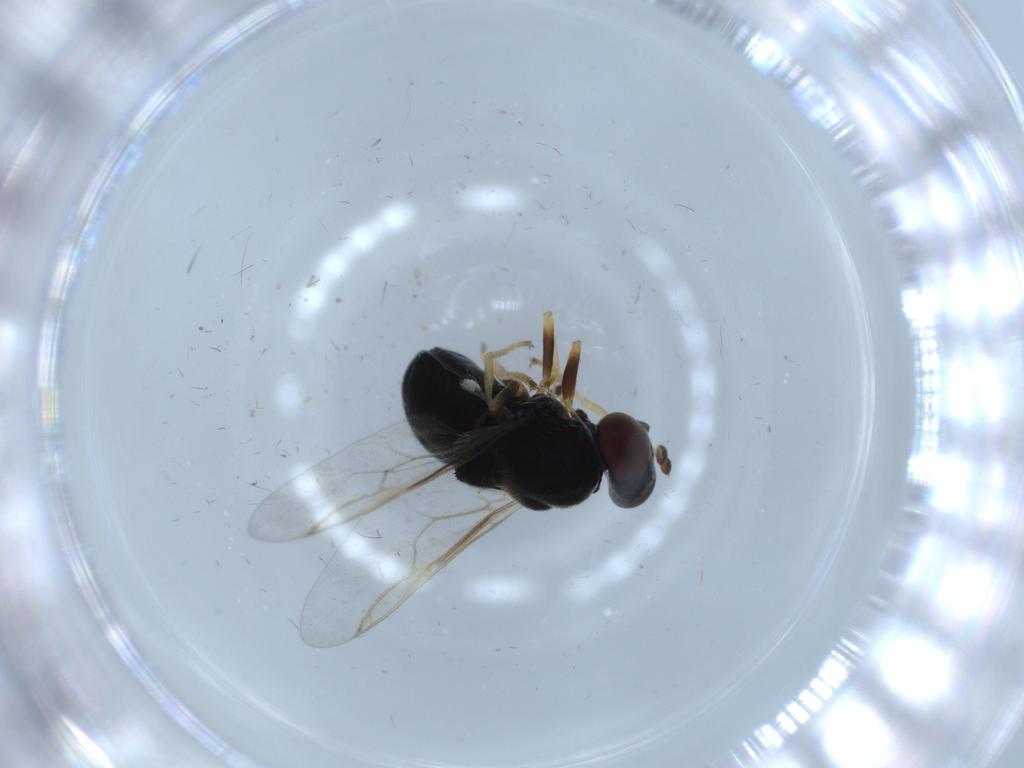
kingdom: Animalia
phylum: Arthropoda
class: Insecta
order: Diptera
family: Stratiomyidae
